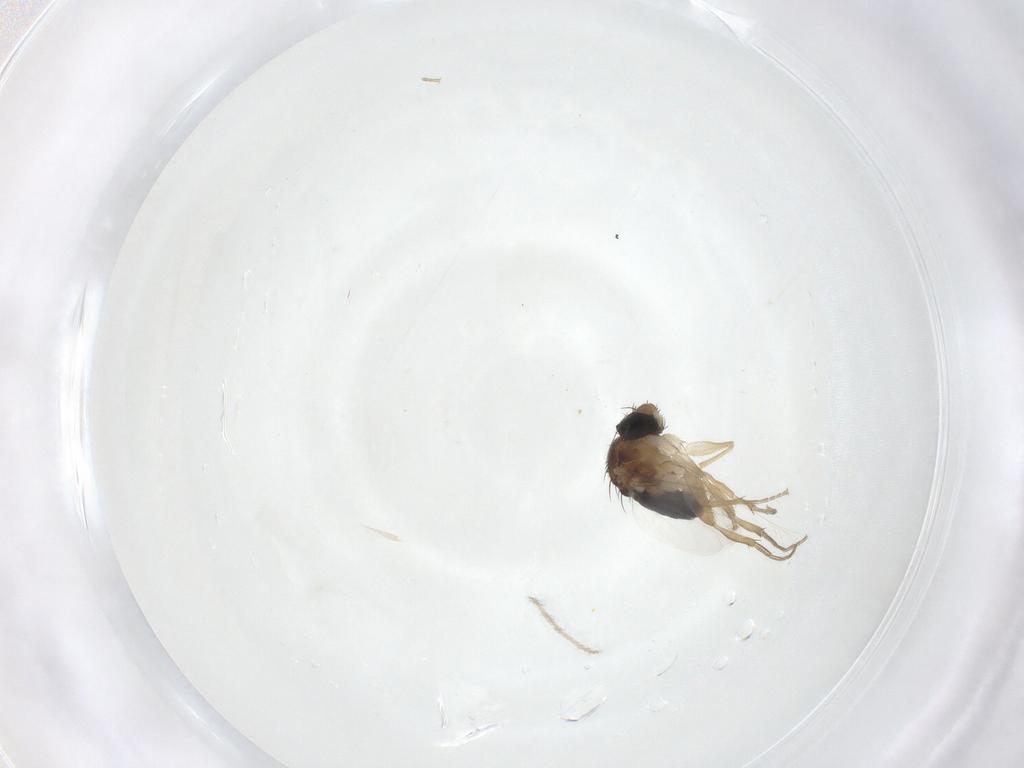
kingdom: Animalia
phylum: Arthropoda
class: Insecta
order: Diptera
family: Phoridae
